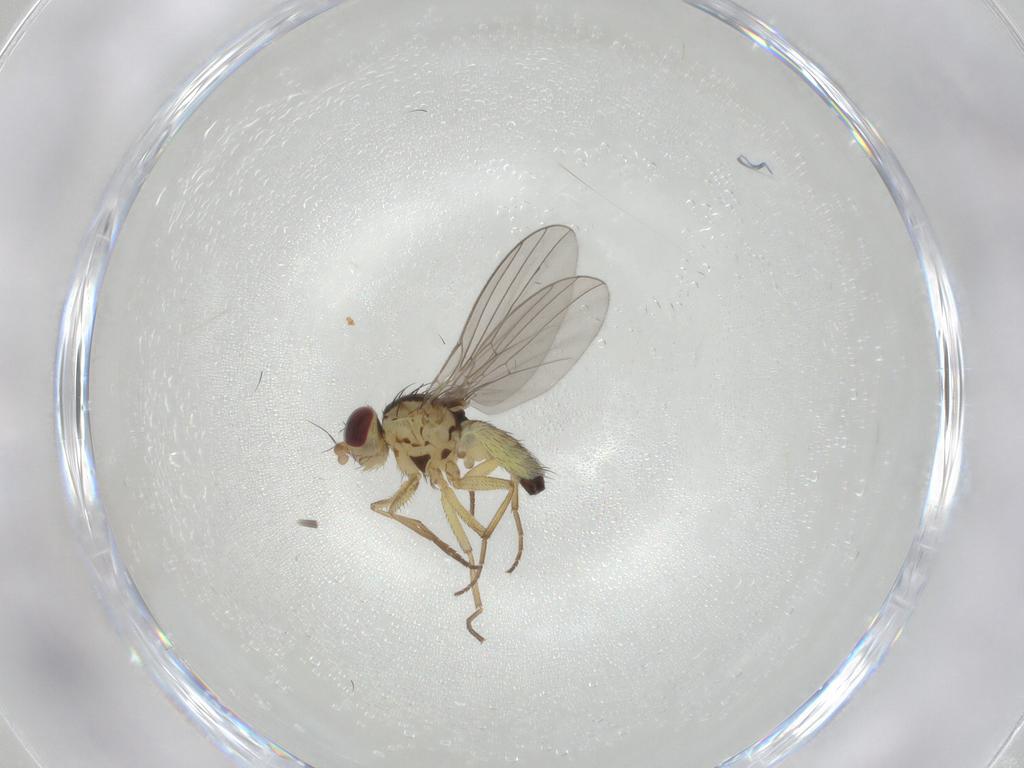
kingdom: Animalia
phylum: Arthropoda
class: Insecta
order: Diptera
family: Agromyzidae
